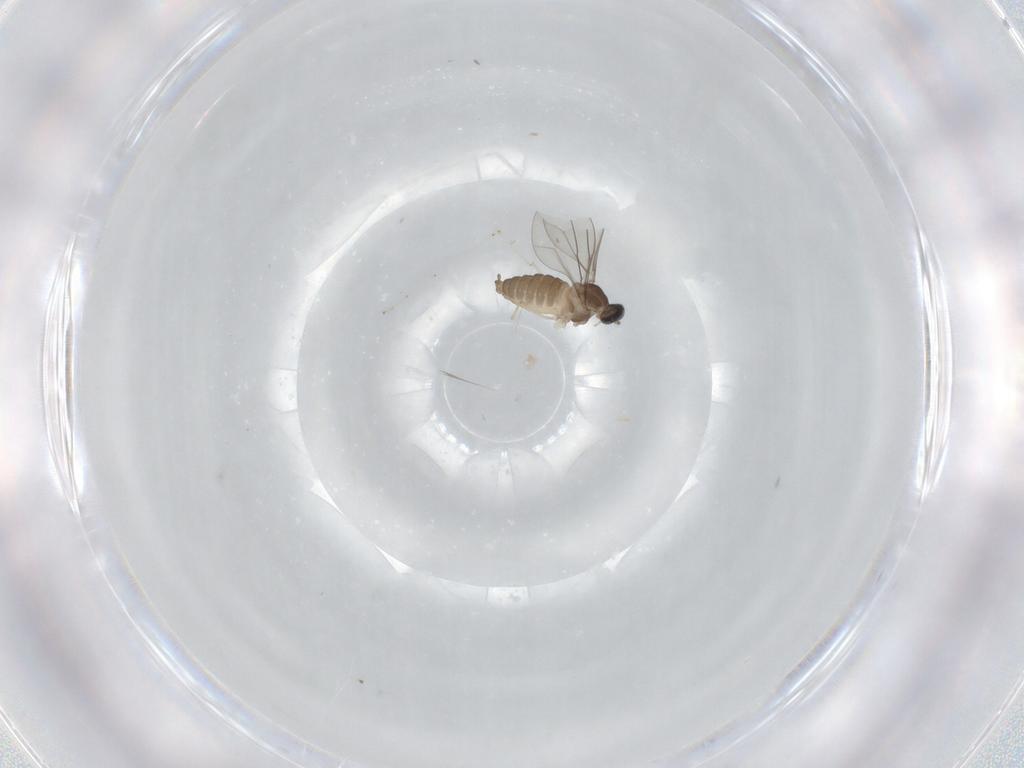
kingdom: Animalia
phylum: Arthropoda
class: Insecta
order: Diptera
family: Cecidomyiidae
